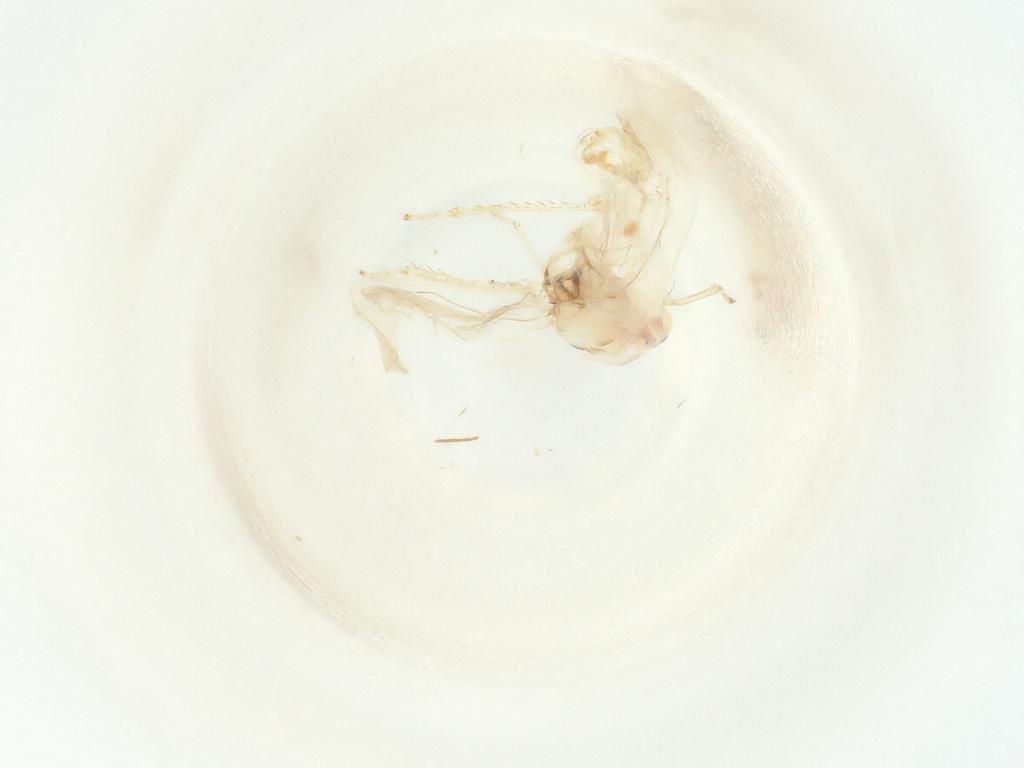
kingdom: Animalia
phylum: Arthropoda
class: Insecta
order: Hemiptera
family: Cicadellidae
